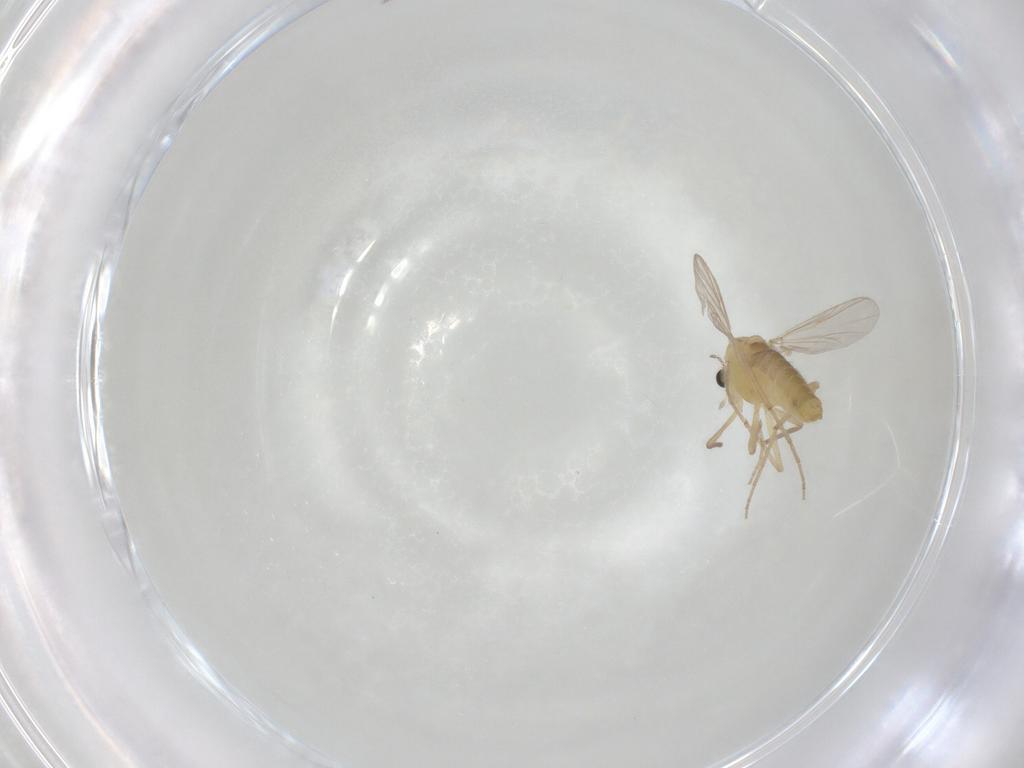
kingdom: Animalia
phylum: Arthropoda
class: Insecta
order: Diptera
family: Chironomidae
